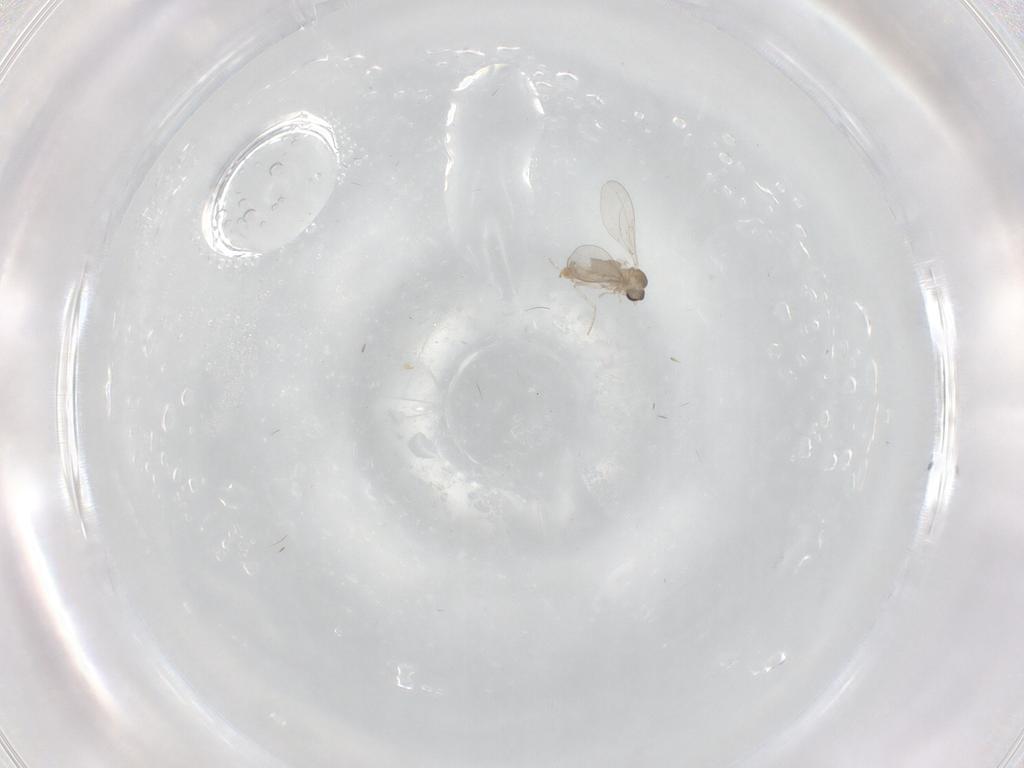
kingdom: Animalia
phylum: Arthropoda
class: Insecta
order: Diptera
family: Cecidomyiidae
